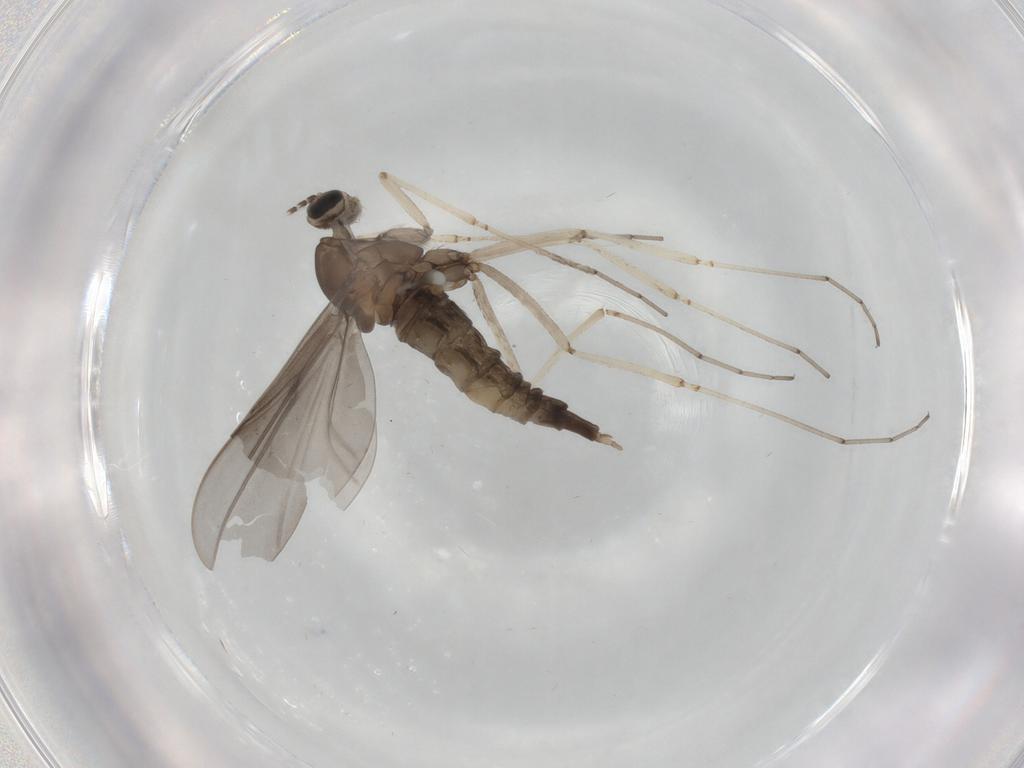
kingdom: Animalia
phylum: Arthropoda
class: Insecta
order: Diptera
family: Cecidomyiidae
